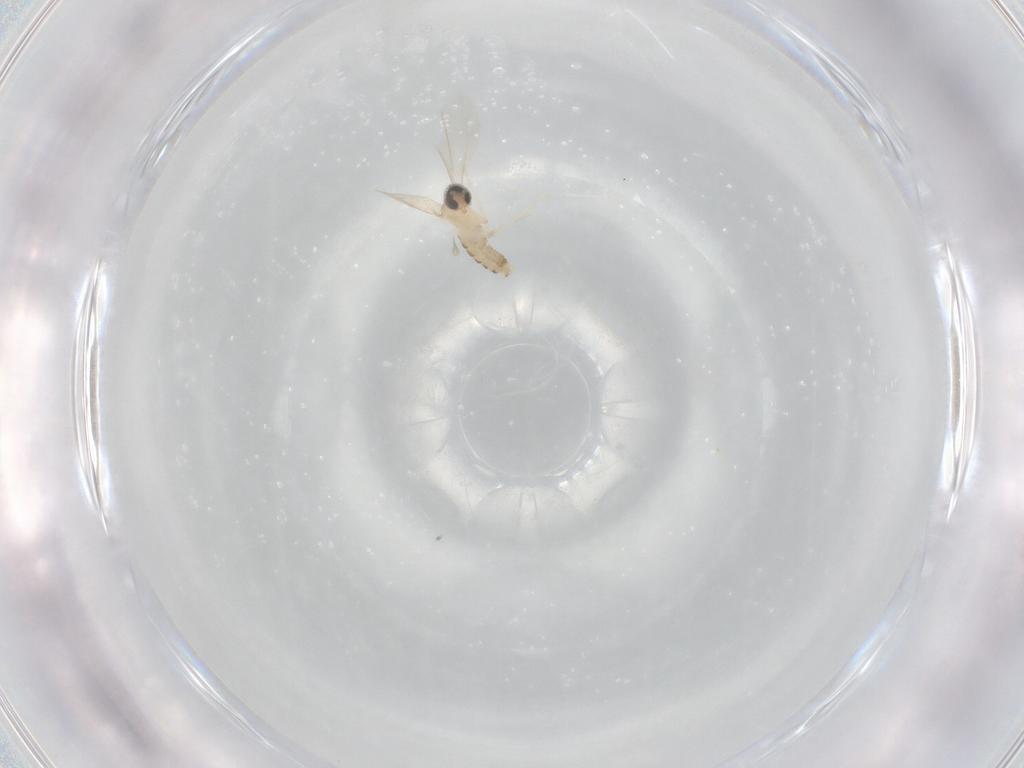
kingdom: Animalia
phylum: Arthropoda
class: Insecta
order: Diptera
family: Cecidomyiidae
